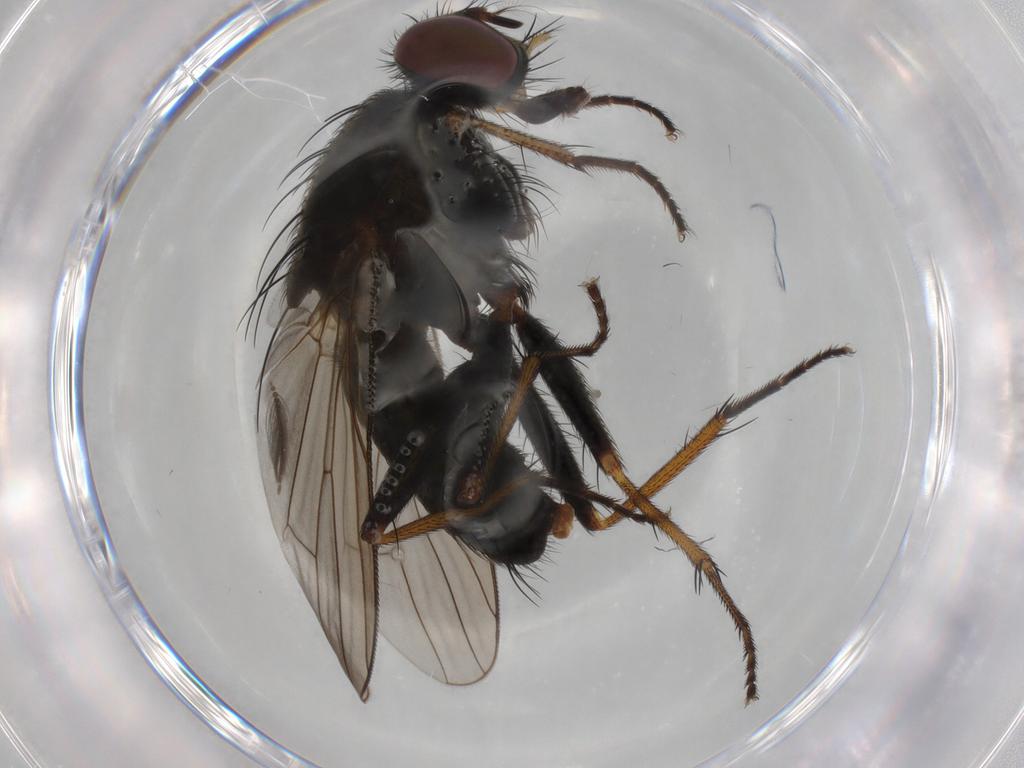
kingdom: Animalia
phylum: Arthropoda
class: Insecta
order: Diptera
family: Muscidae
